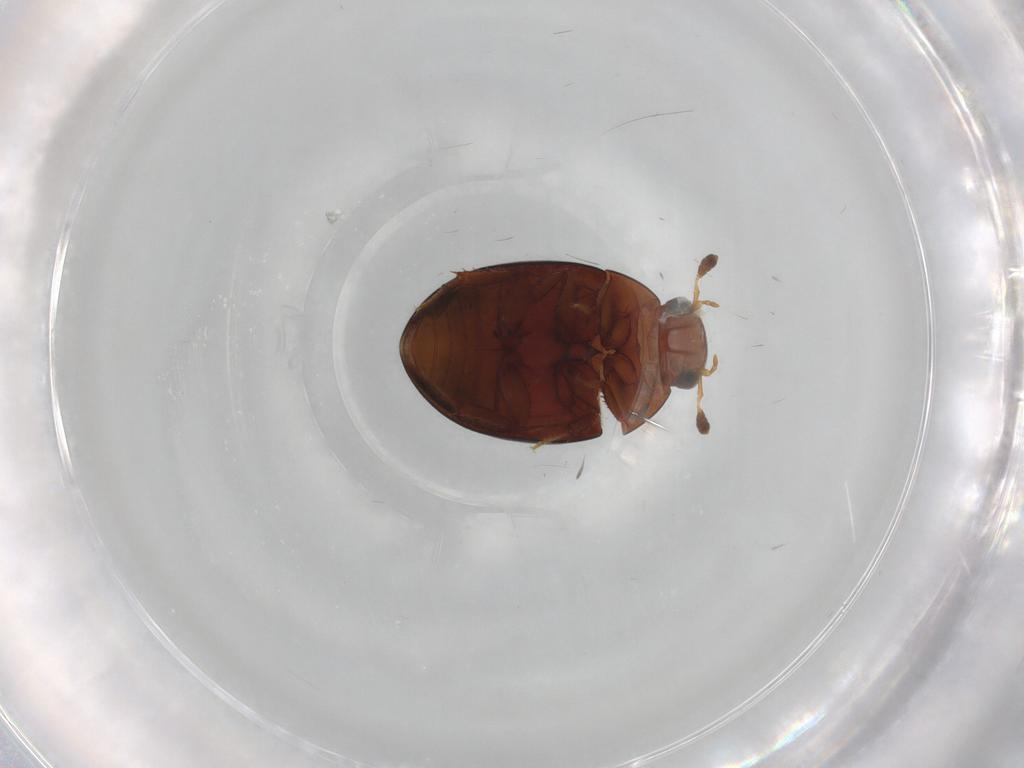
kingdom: Animalia
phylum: Arthropoda
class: Insecta
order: Coleoptera
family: Hydrophilidae
